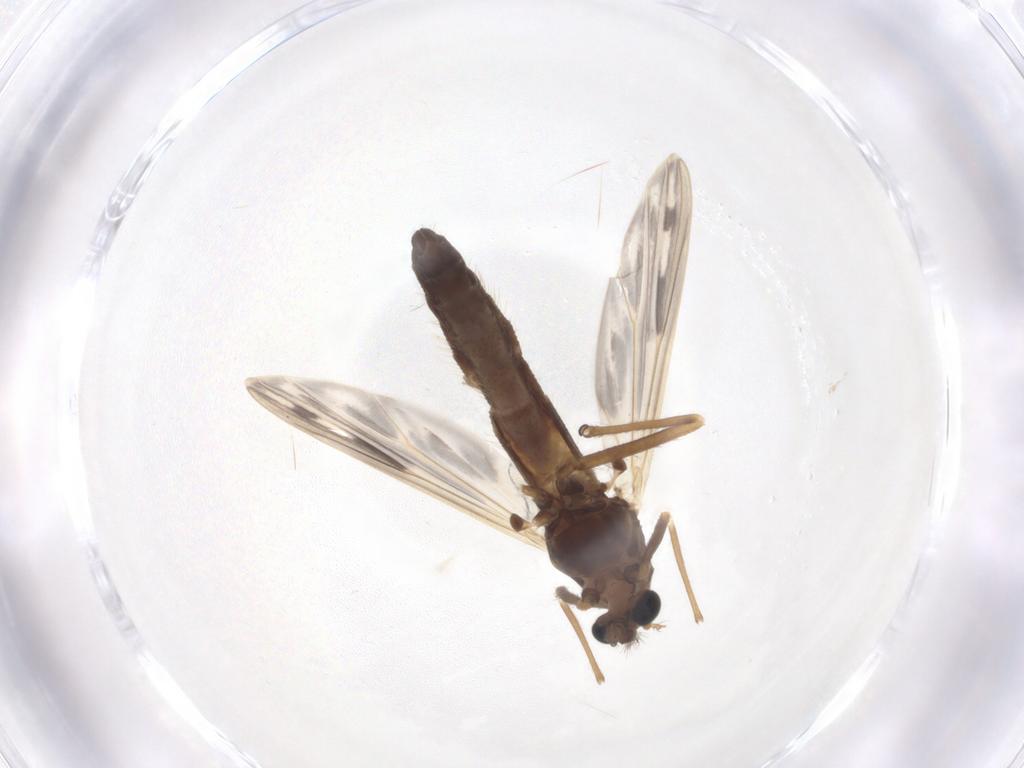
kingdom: Animalia
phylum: Arthropoda
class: Insecta
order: Diptera
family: Chironomidae
